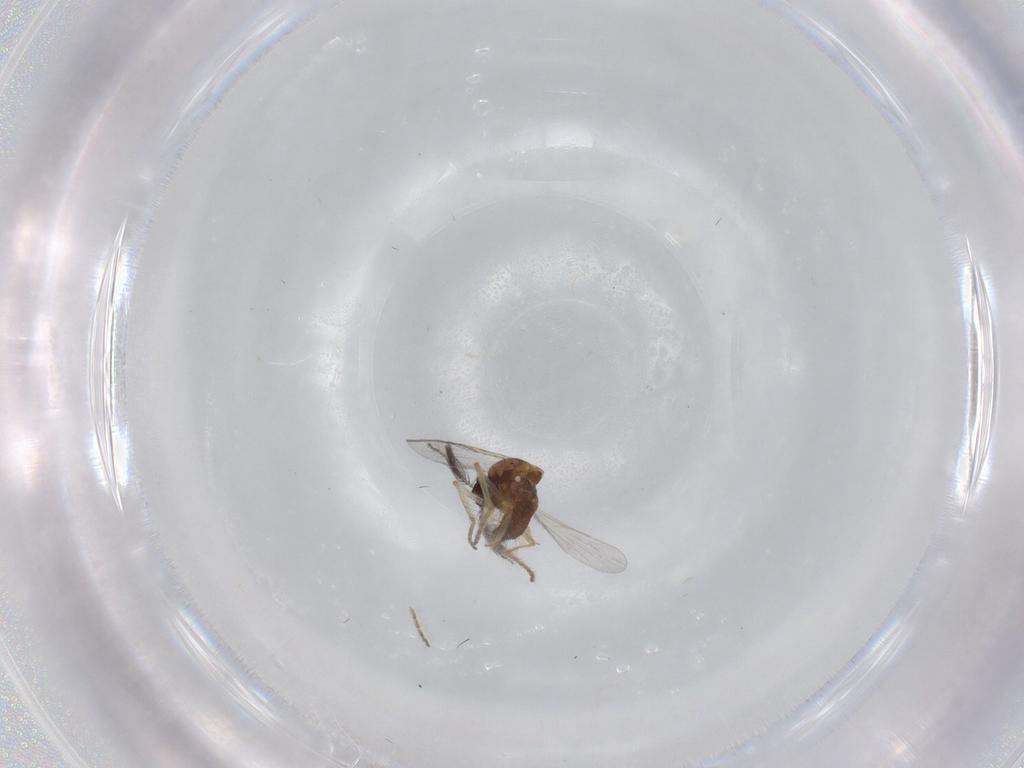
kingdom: Animalia
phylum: Arthropoda
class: Insecta
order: Diptera
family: Ceratopogonidae
